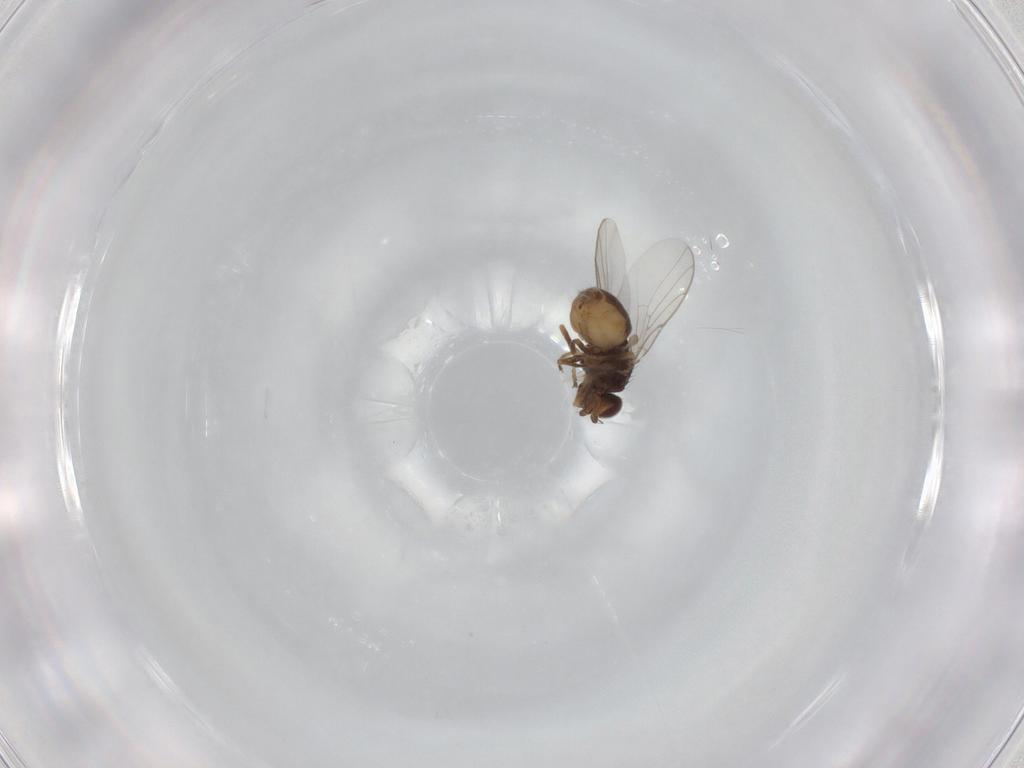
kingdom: Animalia
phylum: Arthropoda
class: Insecta
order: Diptera
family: Chloropidae
